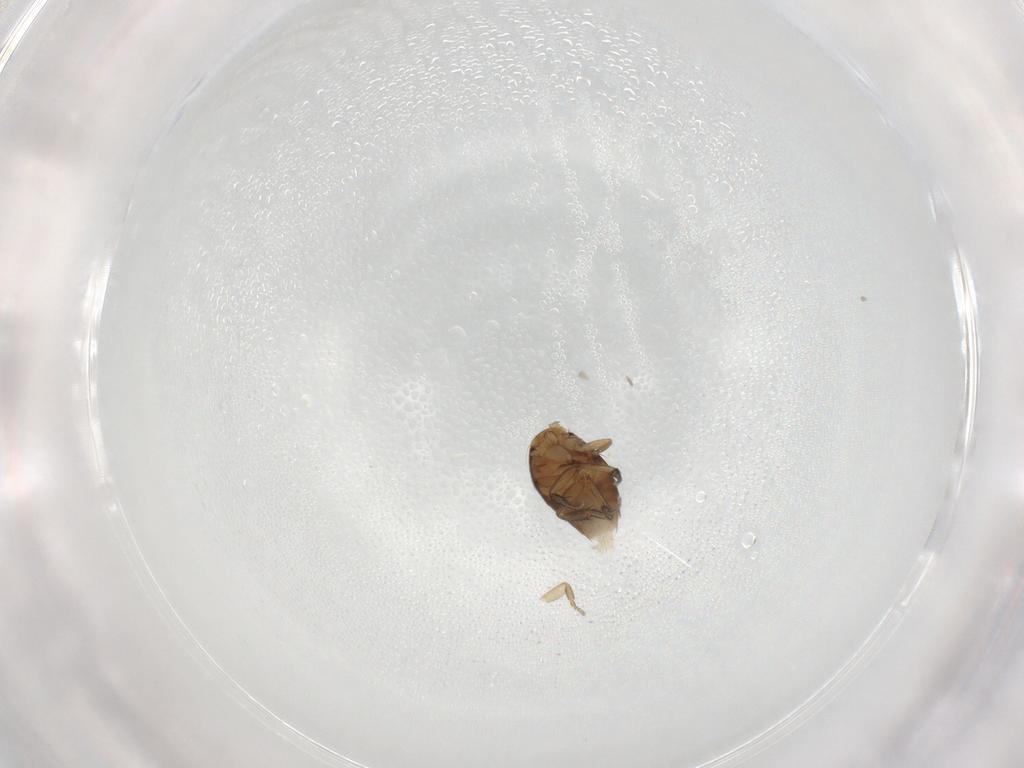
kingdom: Animalia
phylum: Arthropoda
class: Insecta
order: Diptera
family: Phoridae
